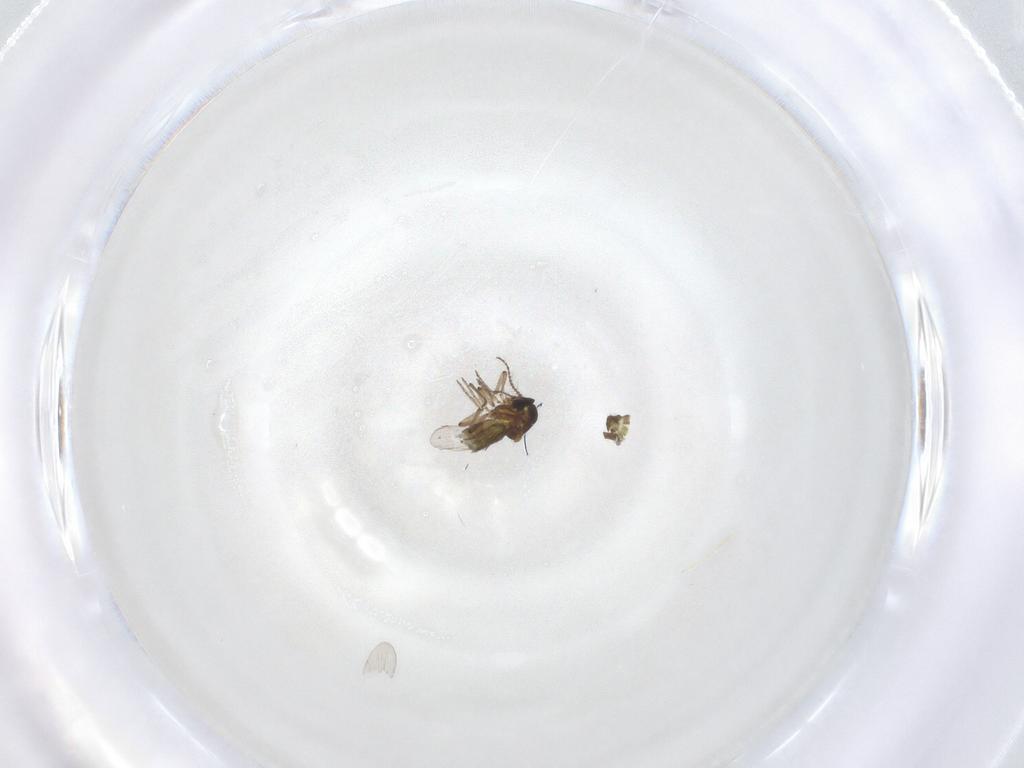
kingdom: Animalia
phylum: Arthropoda
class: Insecta
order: Diptera
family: Ceratopogonidae
